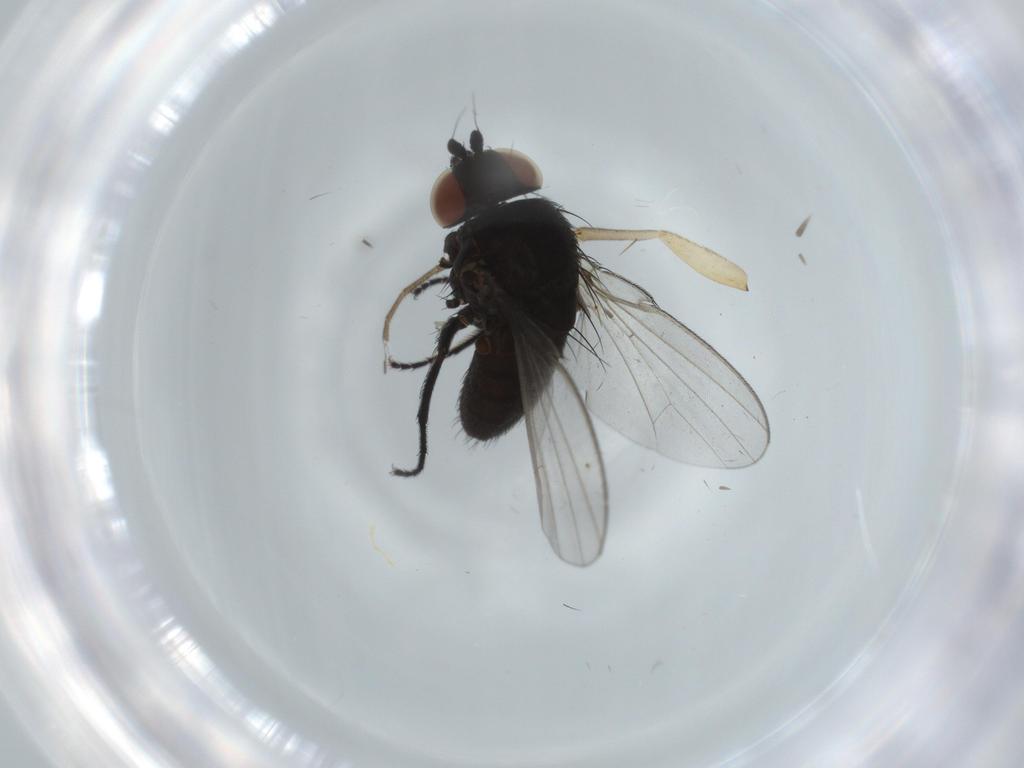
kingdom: Animalia
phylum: Arthropoda
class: Insecta
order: Diptera
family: Milichiidae
